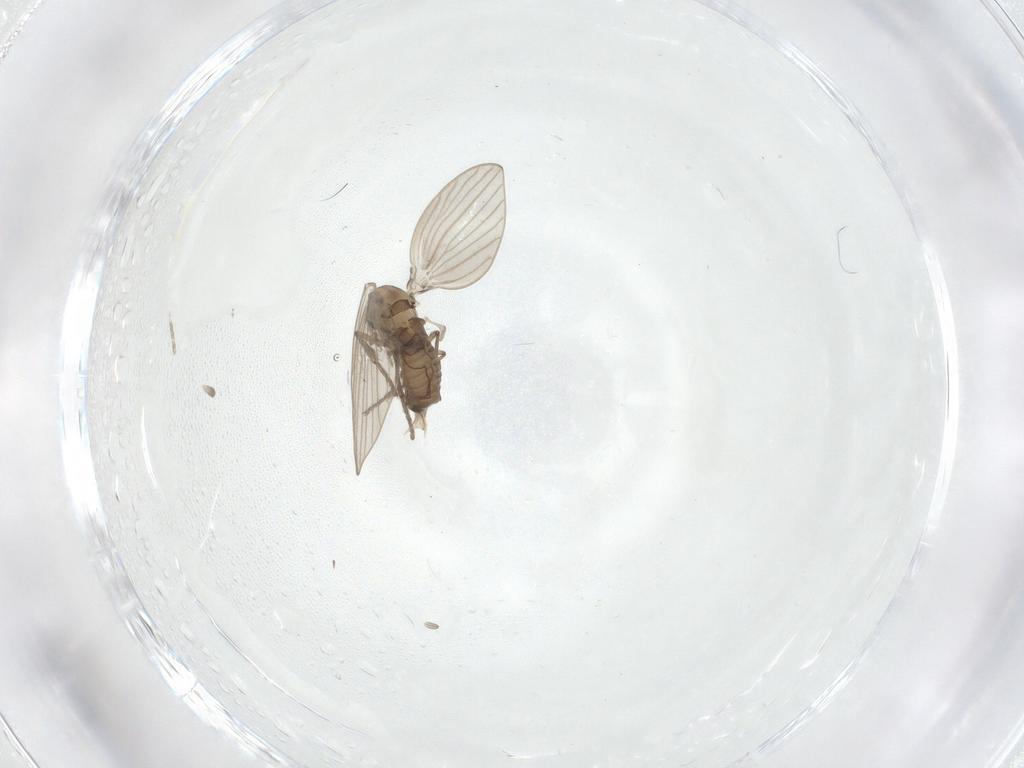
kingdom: Animalia
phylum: Arthropoda
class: Insecta
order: Diptera
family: Psychodidae
